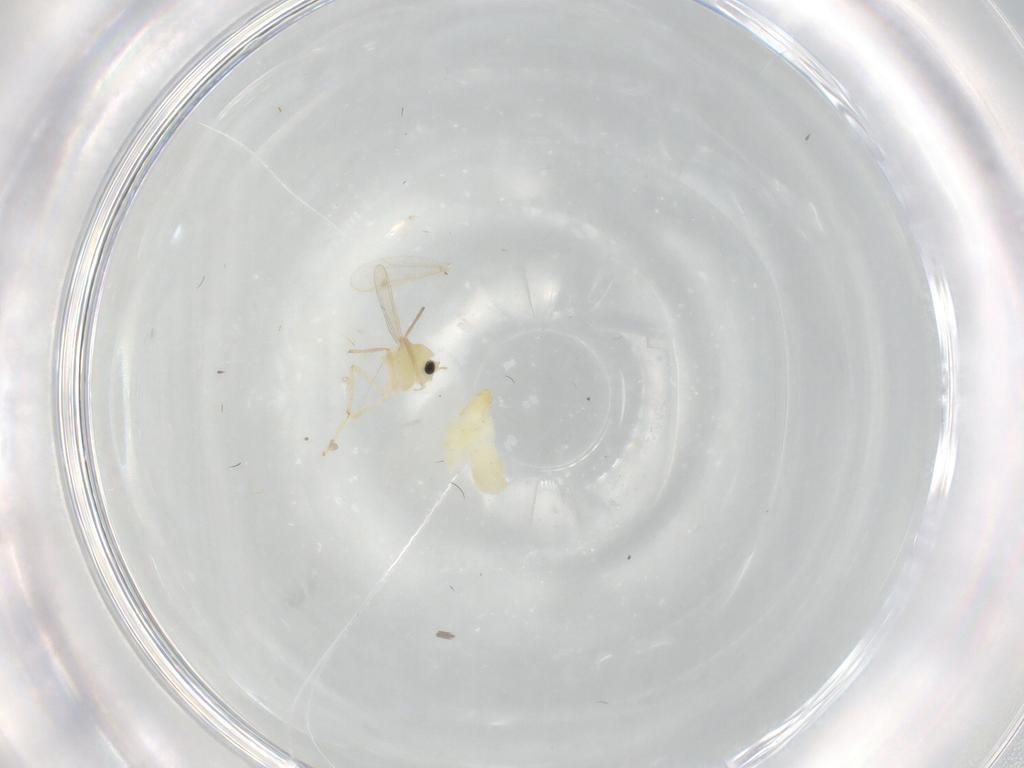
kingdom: Animalia
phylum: Arthropoda
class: Insecta
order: Diptera
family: Chironomidae
